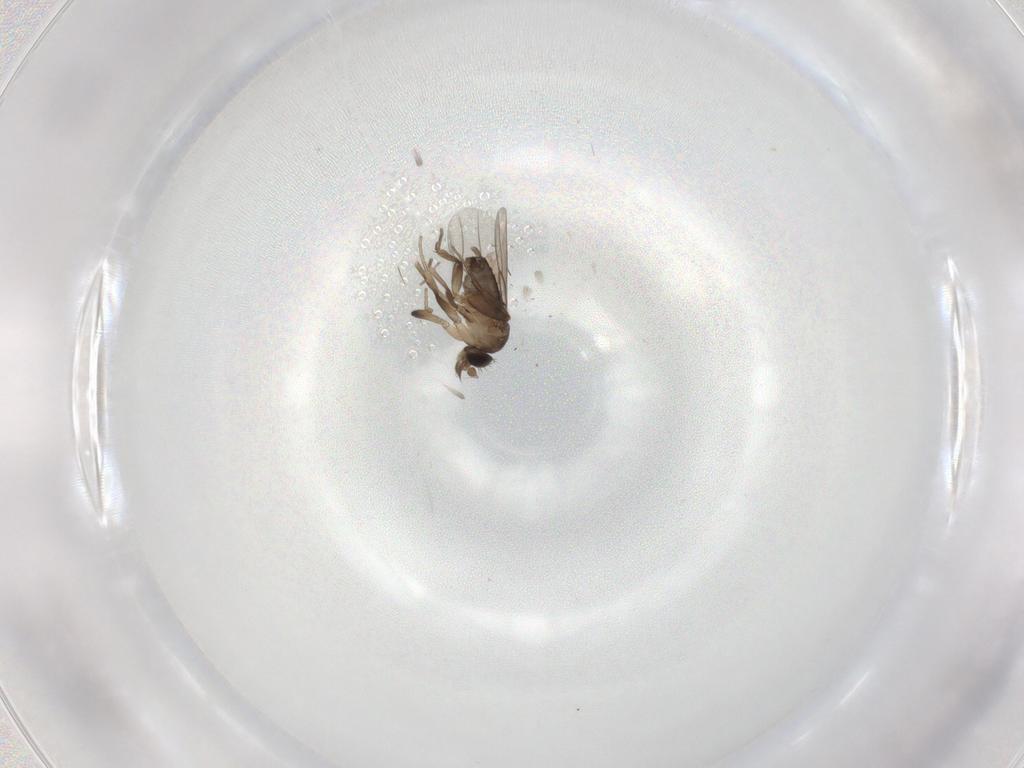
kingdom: Animalia
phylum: Arthropoda
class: Insecta
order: Diptera
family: Phoridae
